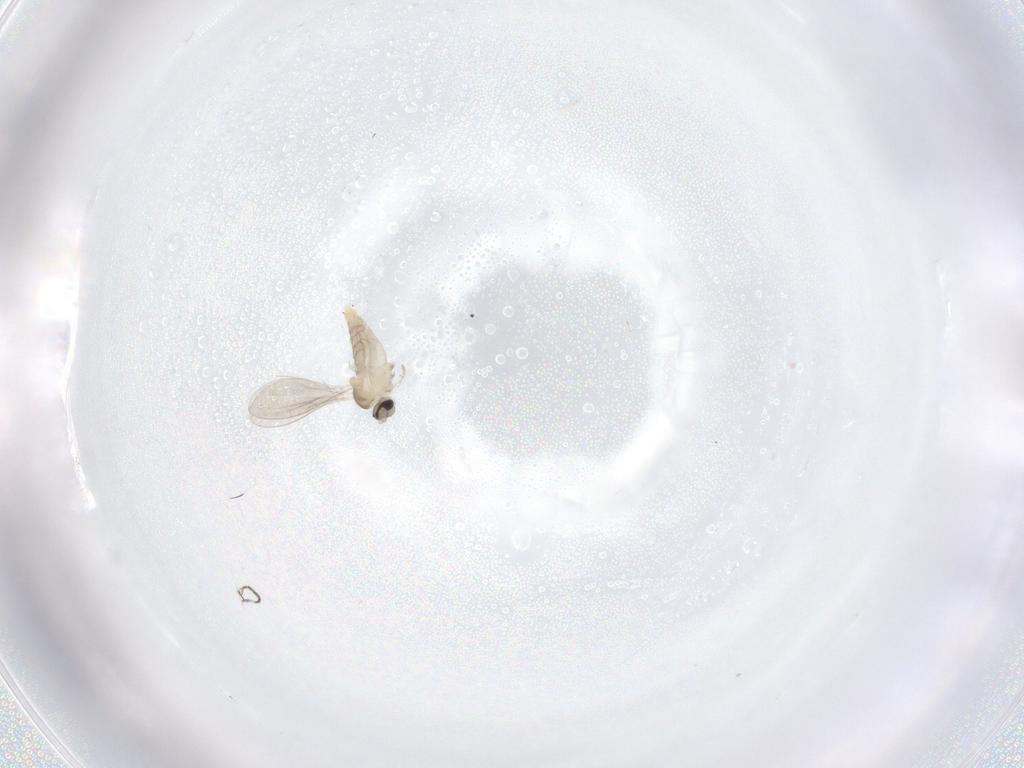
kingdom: Animalia
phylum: Arthropoda
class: Insecta
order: Diptera
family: Cecidomyiidae
